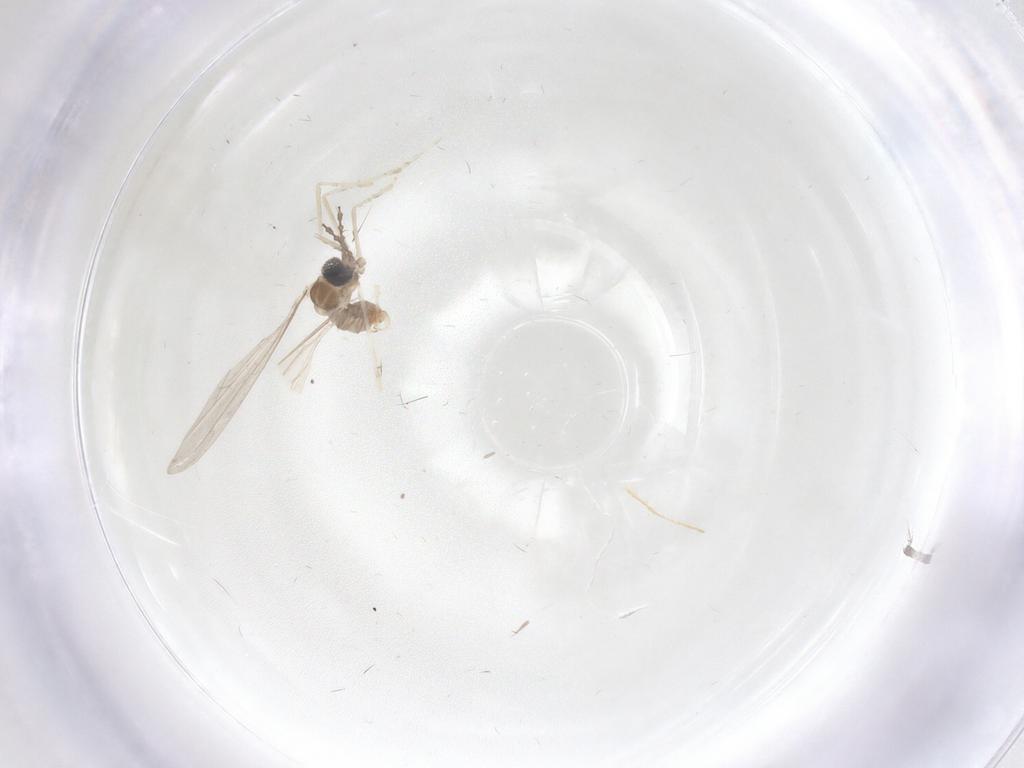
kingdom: Animalia
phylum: Arthropoda
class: Insecta
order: Diptera
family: Cecidomyiidae
